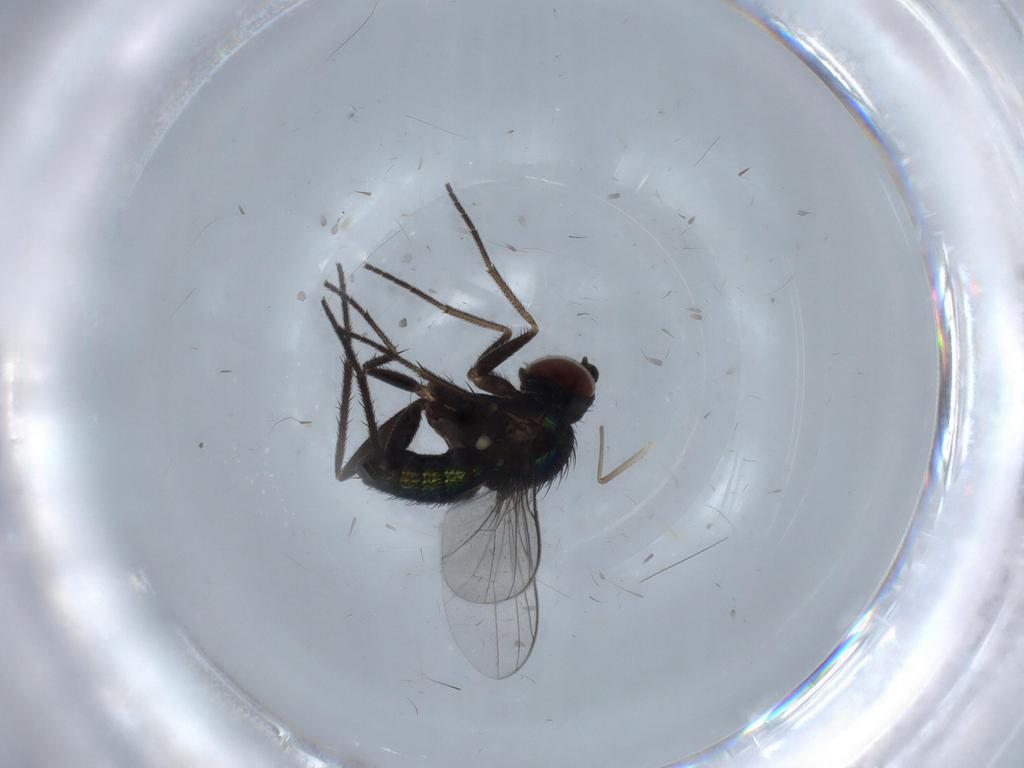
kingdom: Animalia
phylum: Arthropoda
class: Insecta
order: Diptera
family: Dolichopodidae
